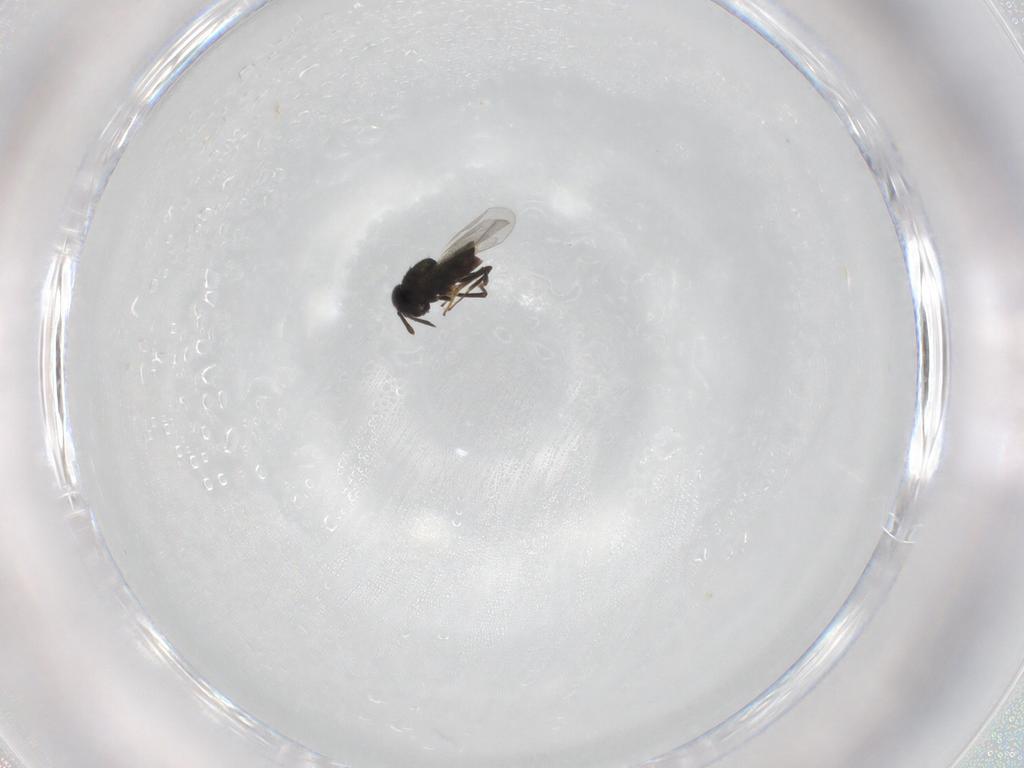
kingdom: Animalia
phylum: Arthropoda
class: Insecta
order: Hymenoptera
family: Encyrtidae
